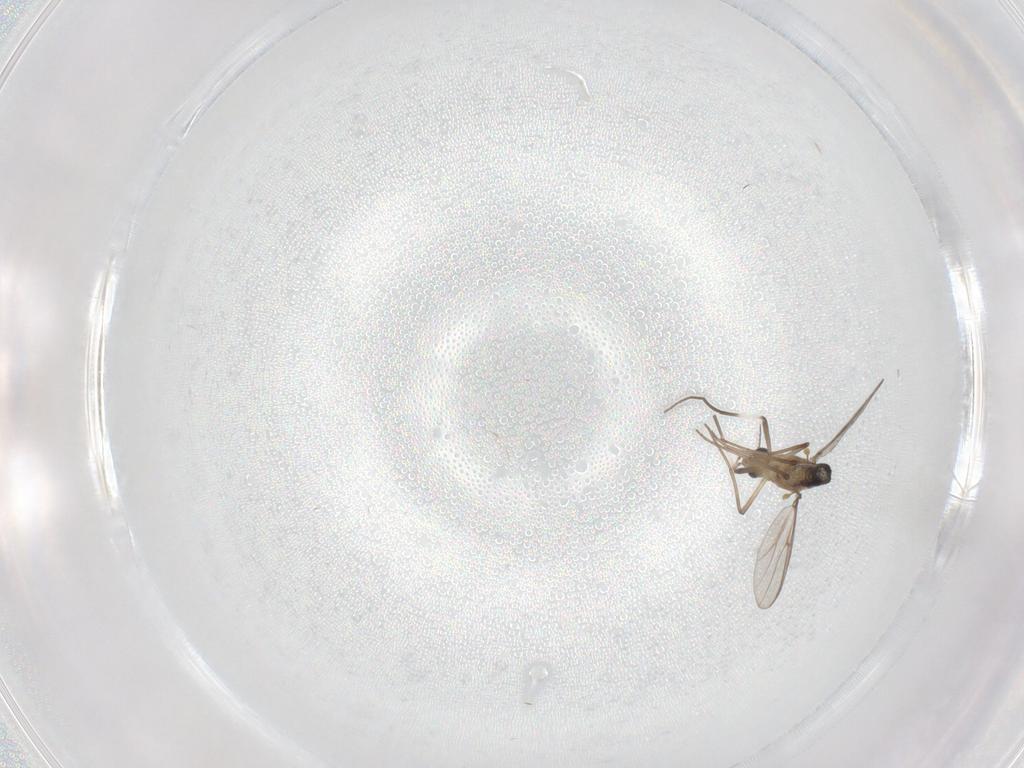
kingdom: Animalia
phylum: Arthropoda
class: Insecta
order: Diptera
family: Chironomidae
